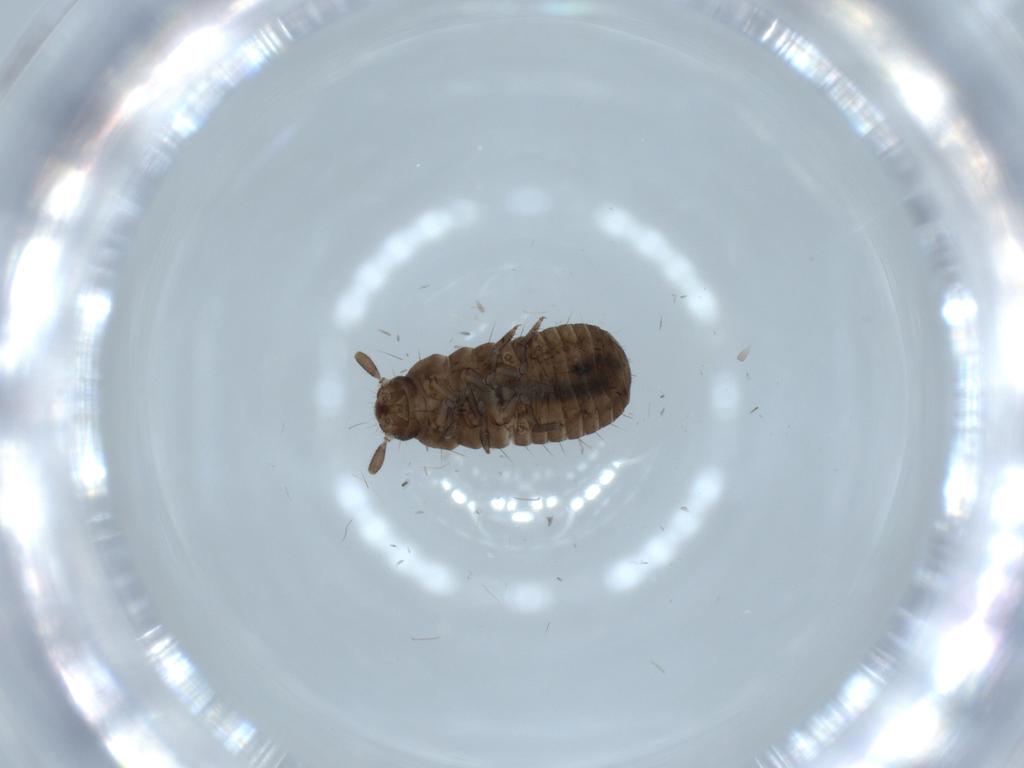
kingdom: Animalia
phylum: Arthropoda
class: Insecta
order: Coleoptera
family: Tenebrionidae
